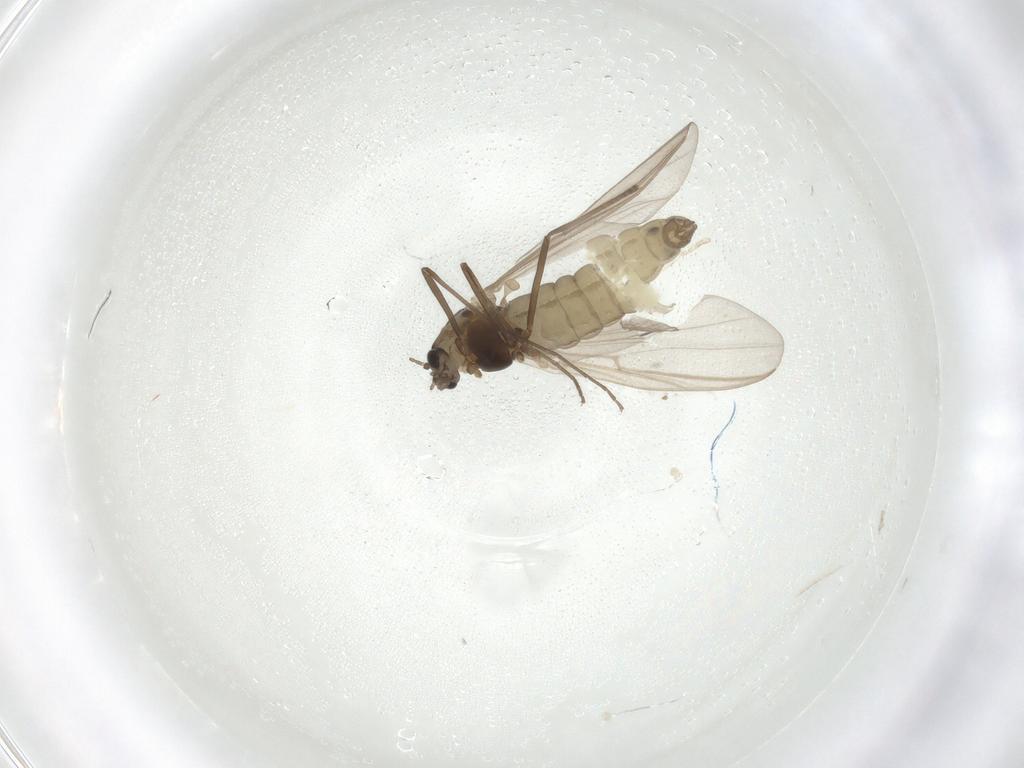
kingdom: Animalia
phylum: Arthropoda
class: Insecta
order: Diptera
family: Chironomidae
